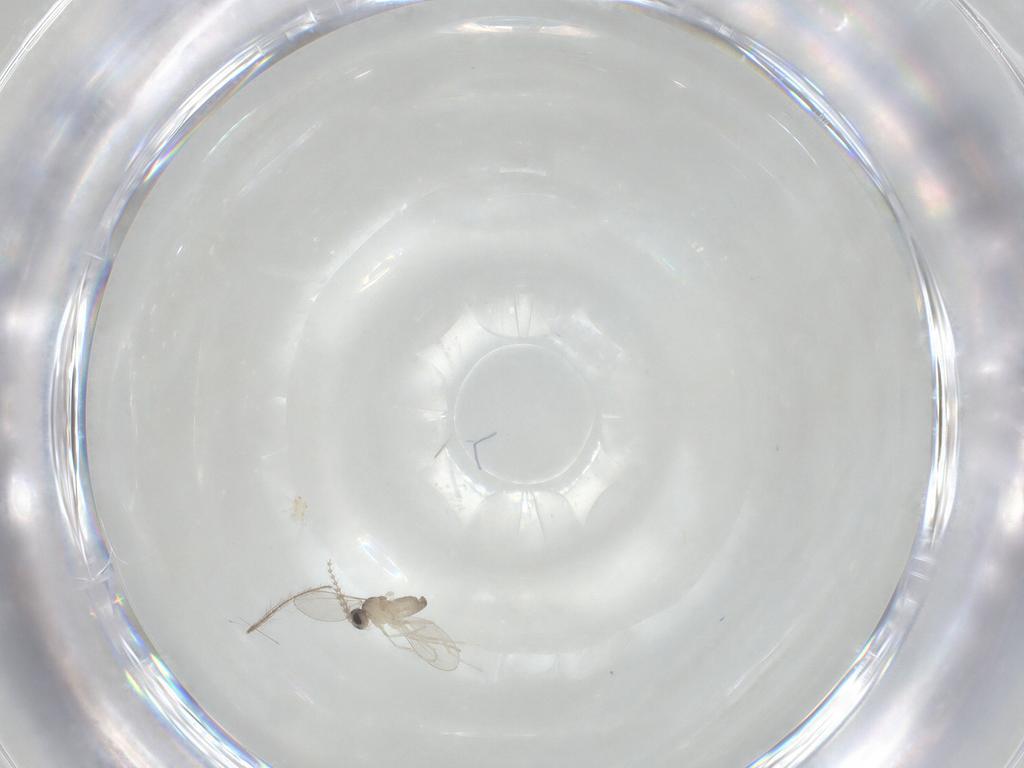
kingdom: Animalia
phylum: Arthropoda
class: Insecta
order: Diptera
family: Cecidomyiidae
